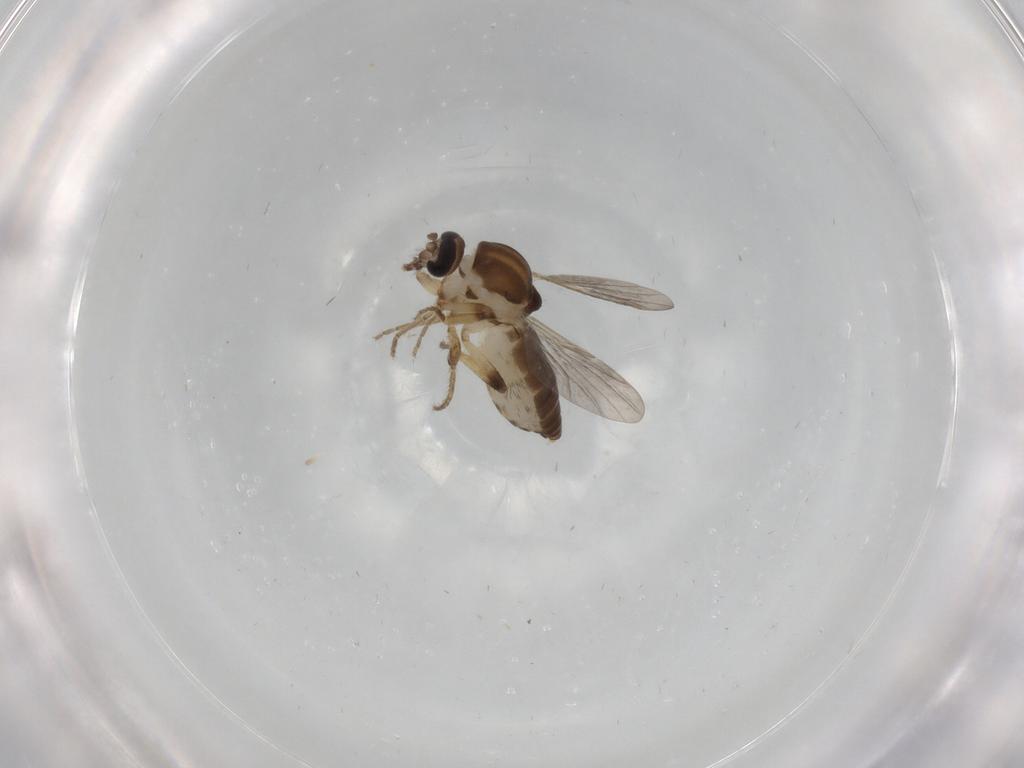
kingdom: Animalia
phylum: Arthropoda
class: Insecta
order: Diptera
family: Ceratopogonidae
